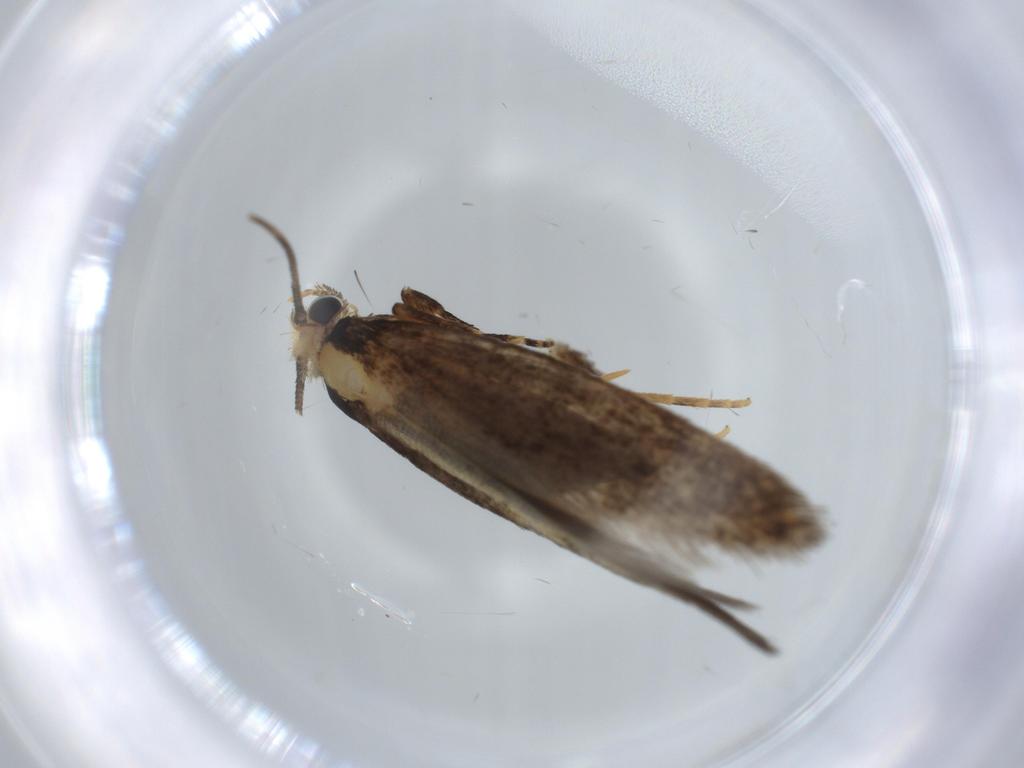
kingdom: Animalia
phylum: Arthropoda
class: Insecta
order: Lepidoptera
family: Tineidae
